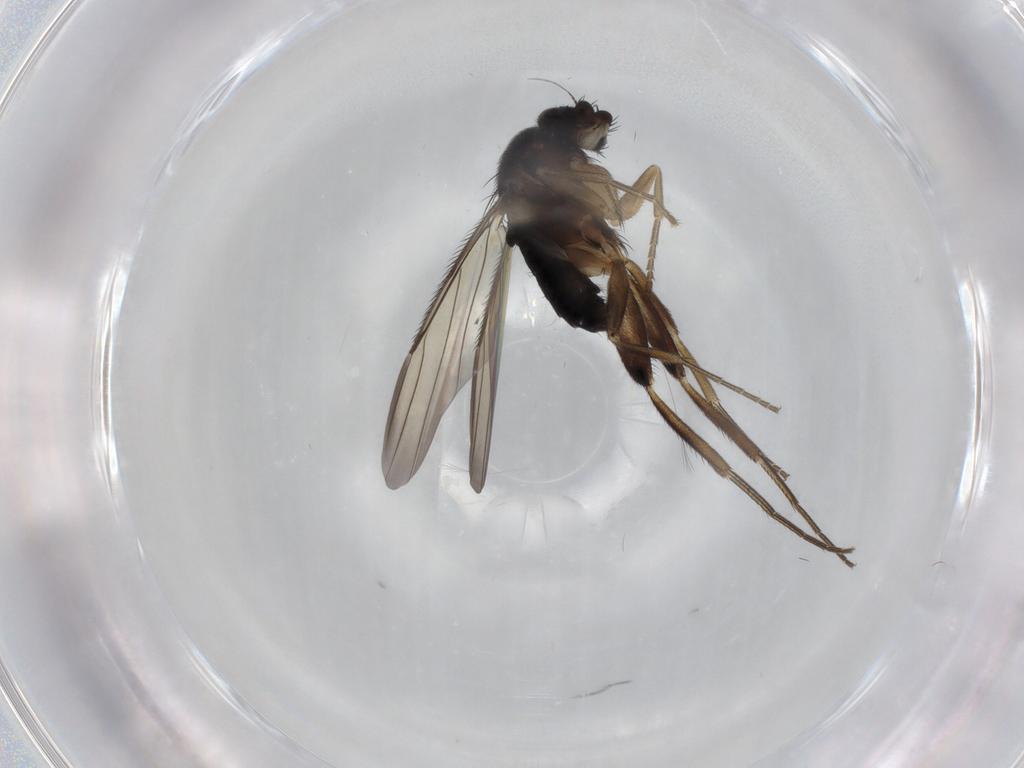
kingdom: Animalia
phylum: Arthropoda
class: Insecta
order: Diptera
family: Phoridae
